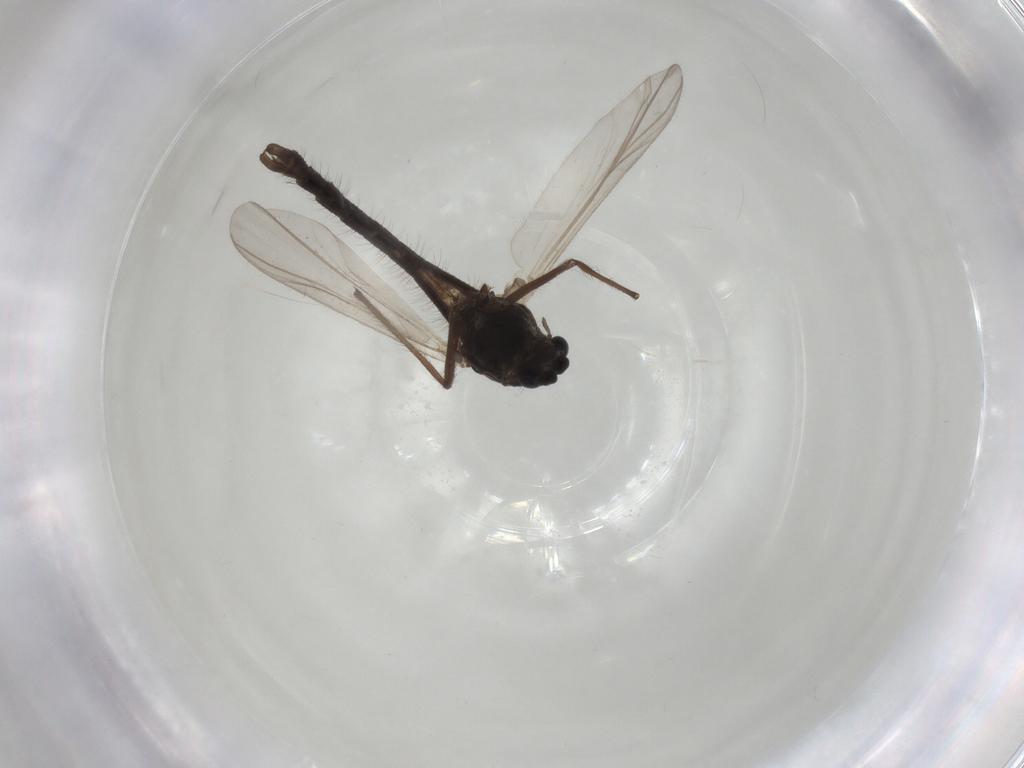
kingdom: Animalia
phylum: Arthropoda
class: Insecta
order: Diptera
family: Chironomidae
